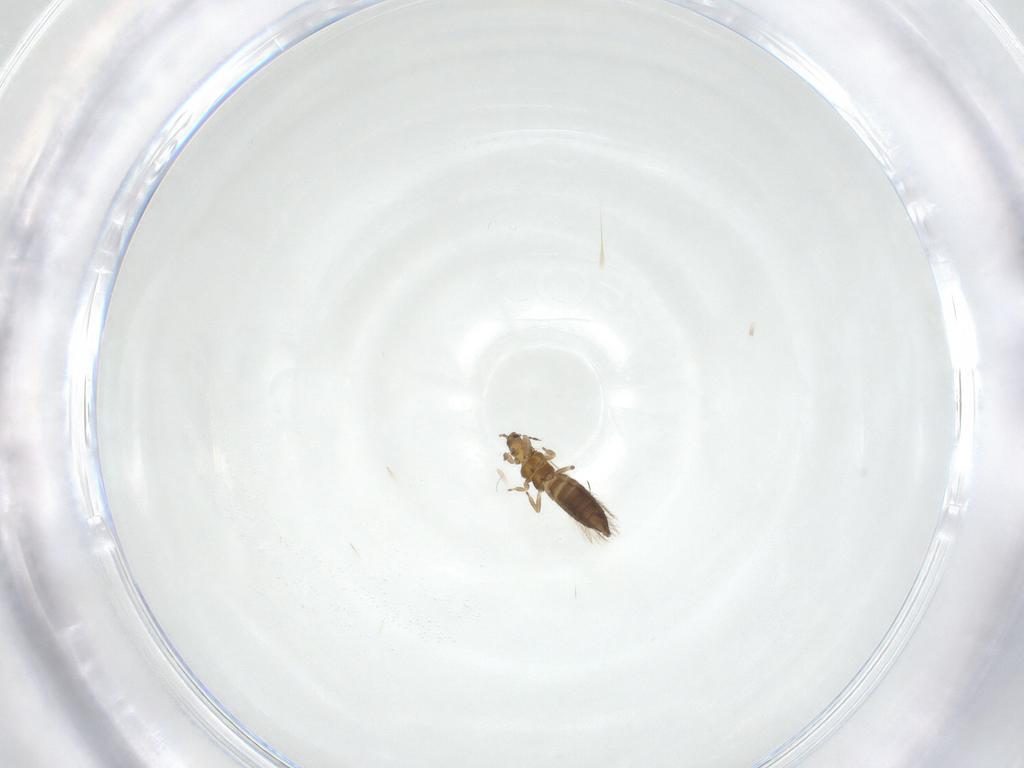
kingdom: Animalia
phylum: Arthropoda
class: Insecta
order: Thysanoptera
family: Thripidae
